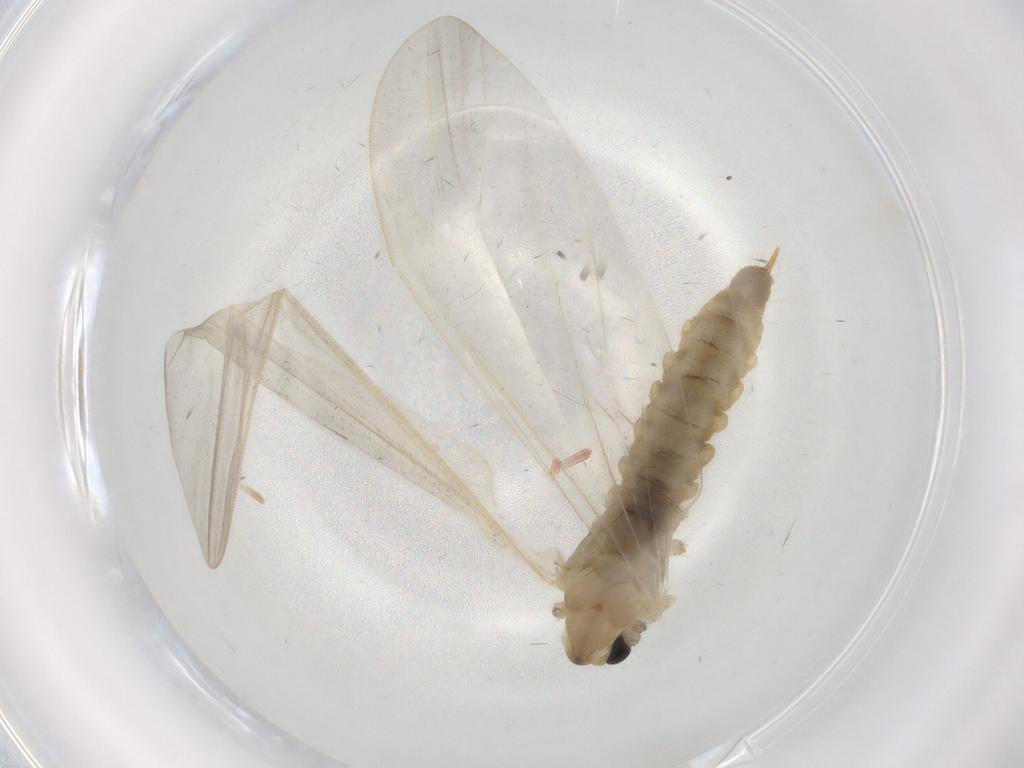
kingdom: Animalia
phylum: Arthropoda
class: Insecta
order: Diptera
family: Limoniidae
